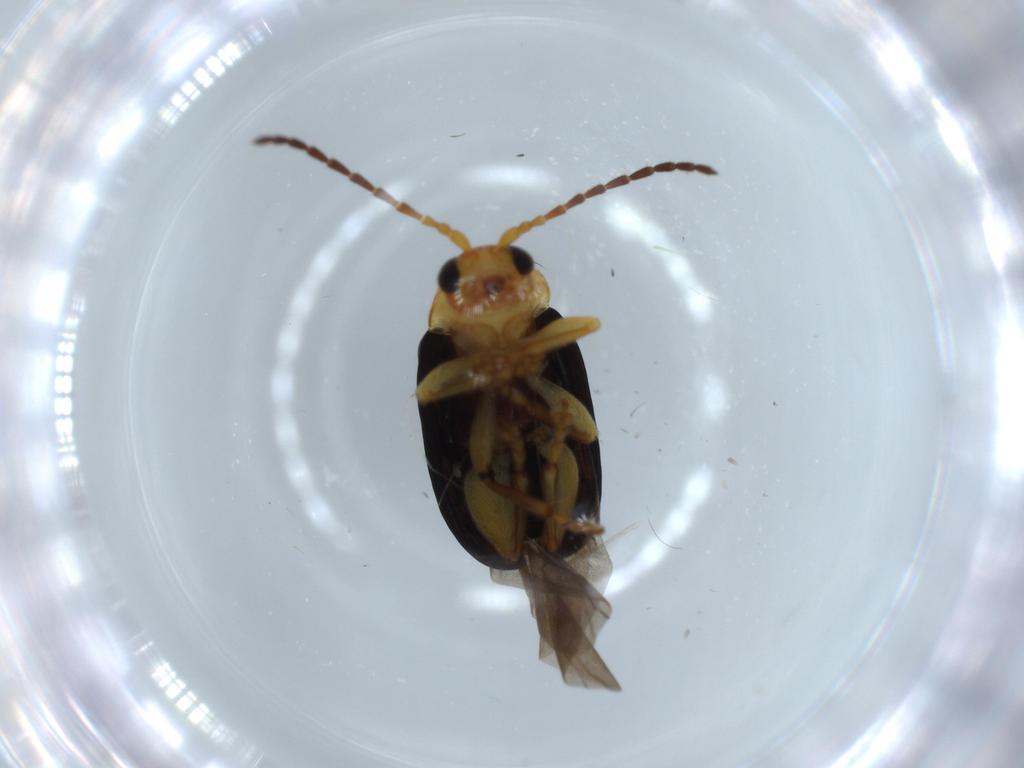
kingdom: Animalia
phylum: Arthropoda
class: Insecta
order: Coleoptera
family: Chrysomelidae
